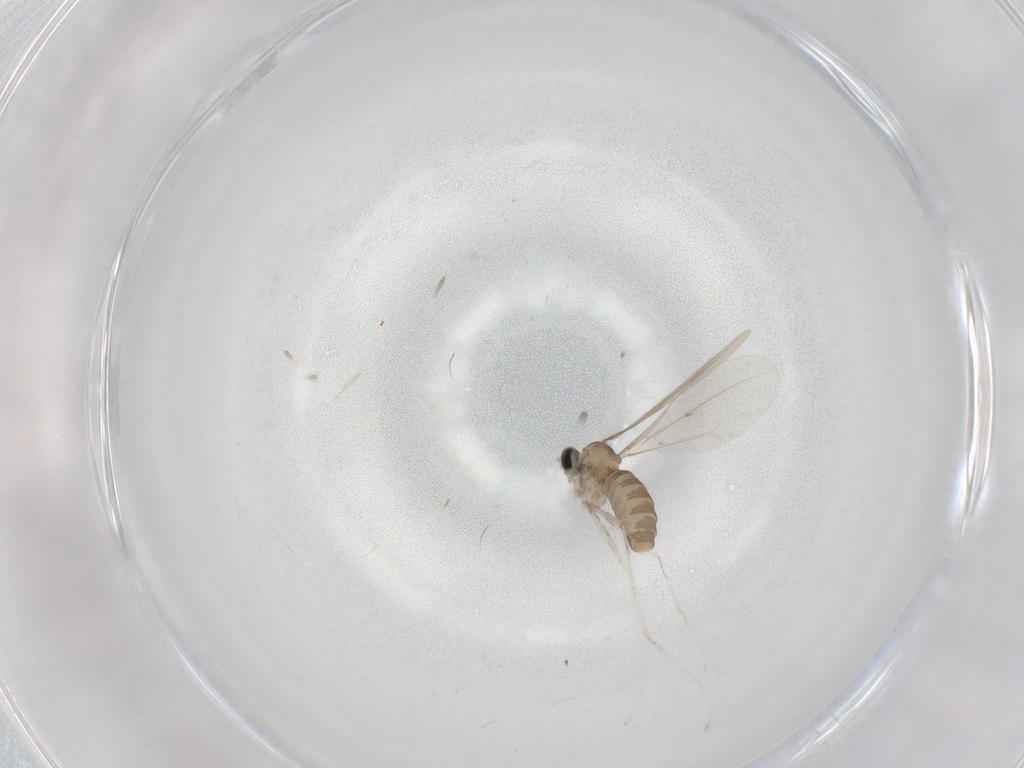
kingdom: Animalia
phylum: Arthropoda
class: Insecta
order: Diptera
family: Cecidomyiidae
